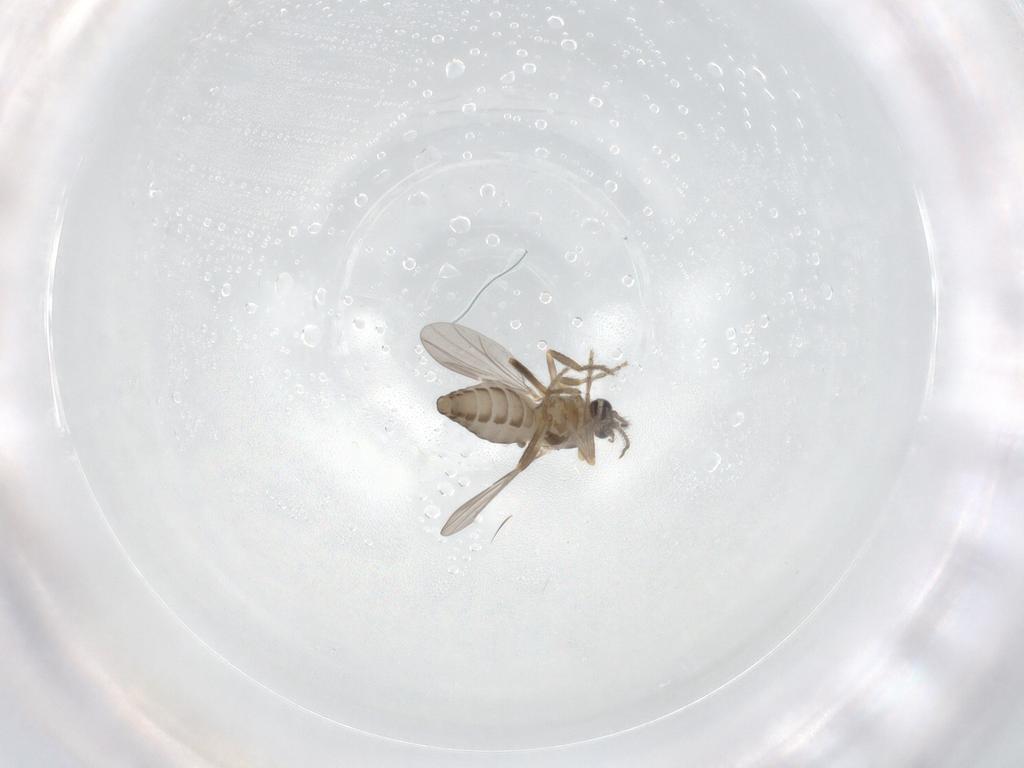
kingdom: Animalia
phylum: Arthropoda
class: Insecta
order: Diptera
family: Ceratopogonidae
